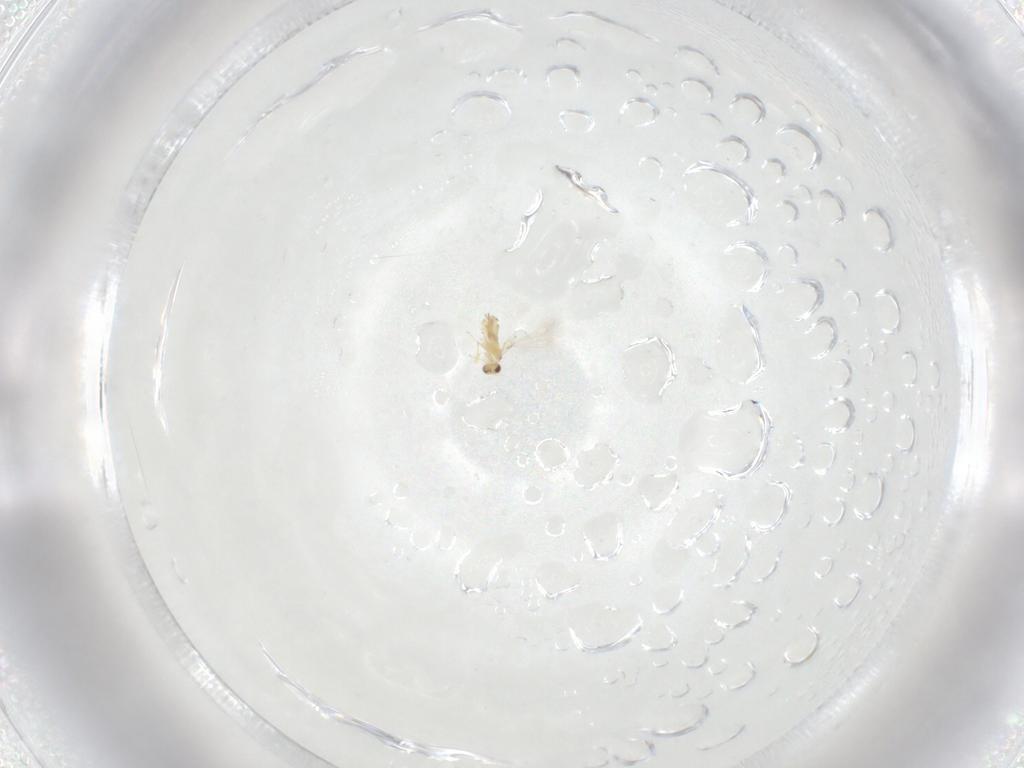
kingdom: Animalia
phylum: Arthropoda
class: Insecta
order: Hymenoptera
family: Mymaridae
